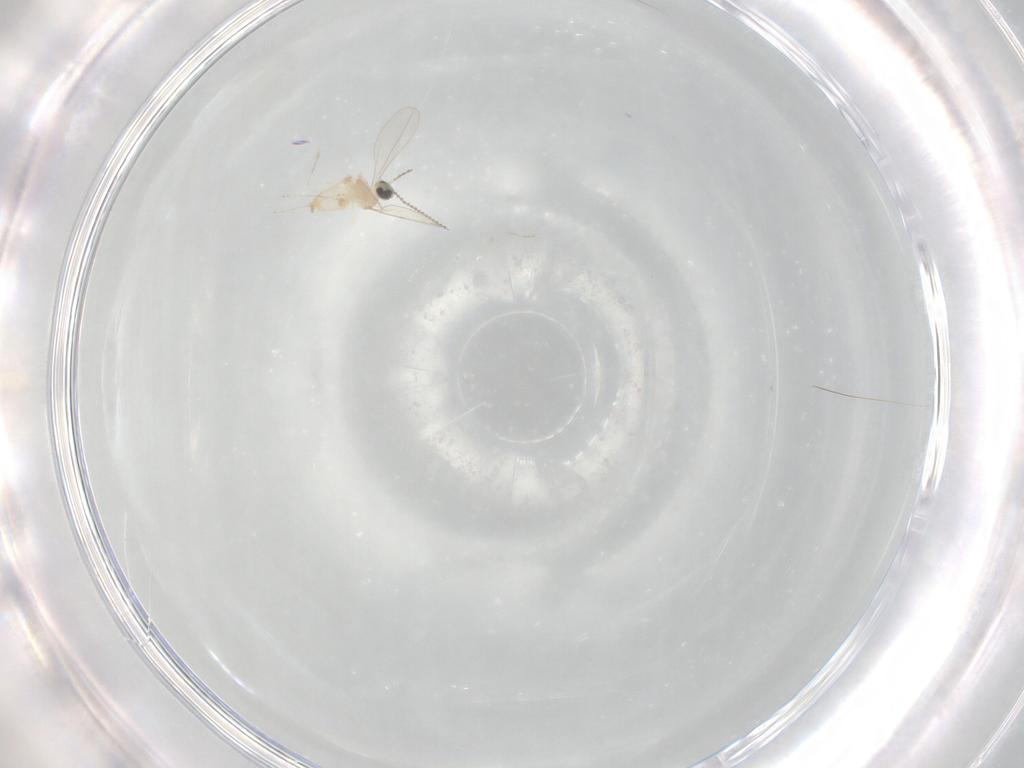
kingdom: Animalia
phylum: Arthropoda
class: Insecta
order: Diptera
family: Cecidomyiidae
